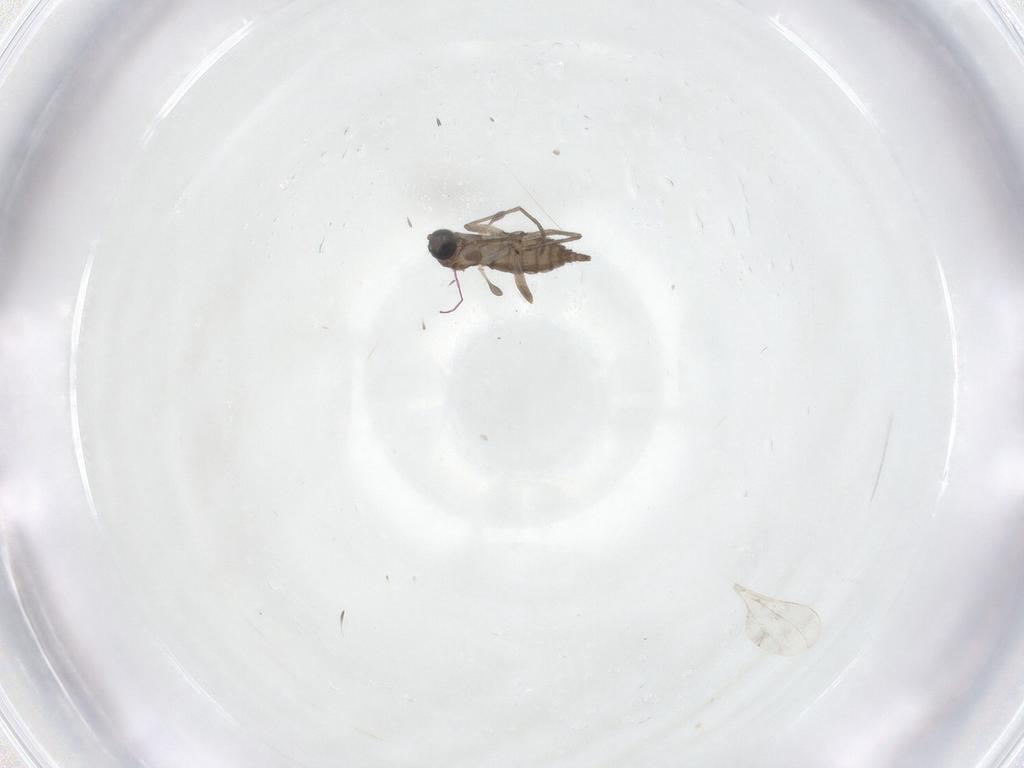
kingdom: Animalia
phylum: Arthropoda
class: Insecta
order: Diptera
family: Sciaridae
